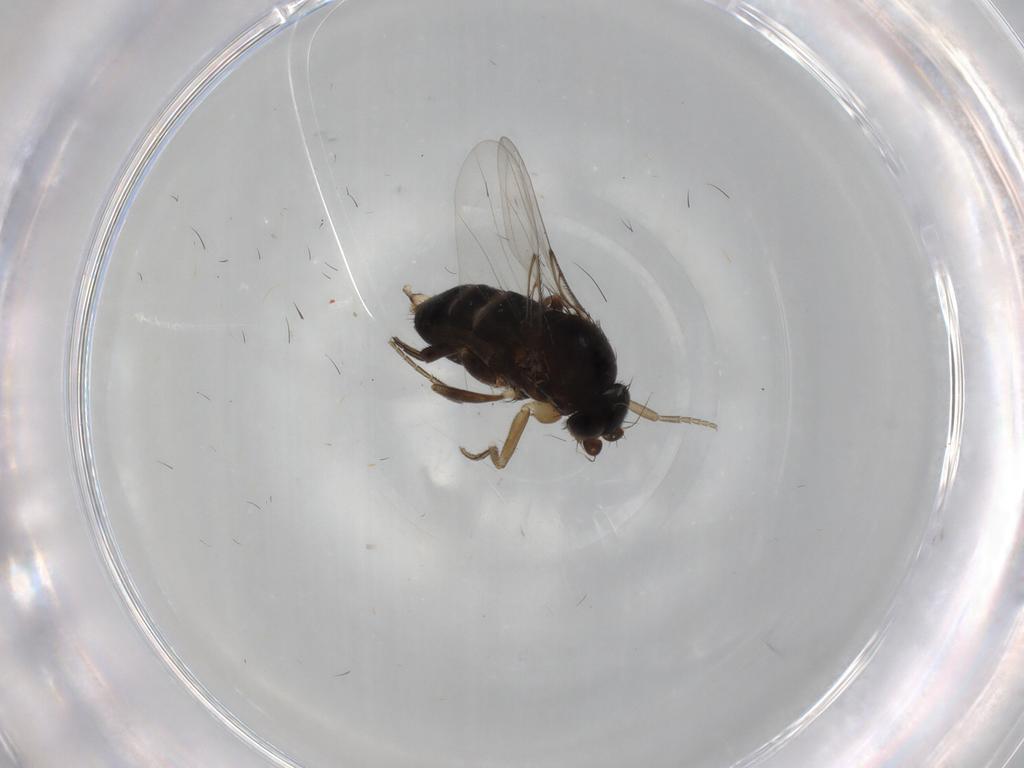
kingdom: Animalia
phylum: Arthropoda
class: Insecta
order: Diptera
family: Phoridae
